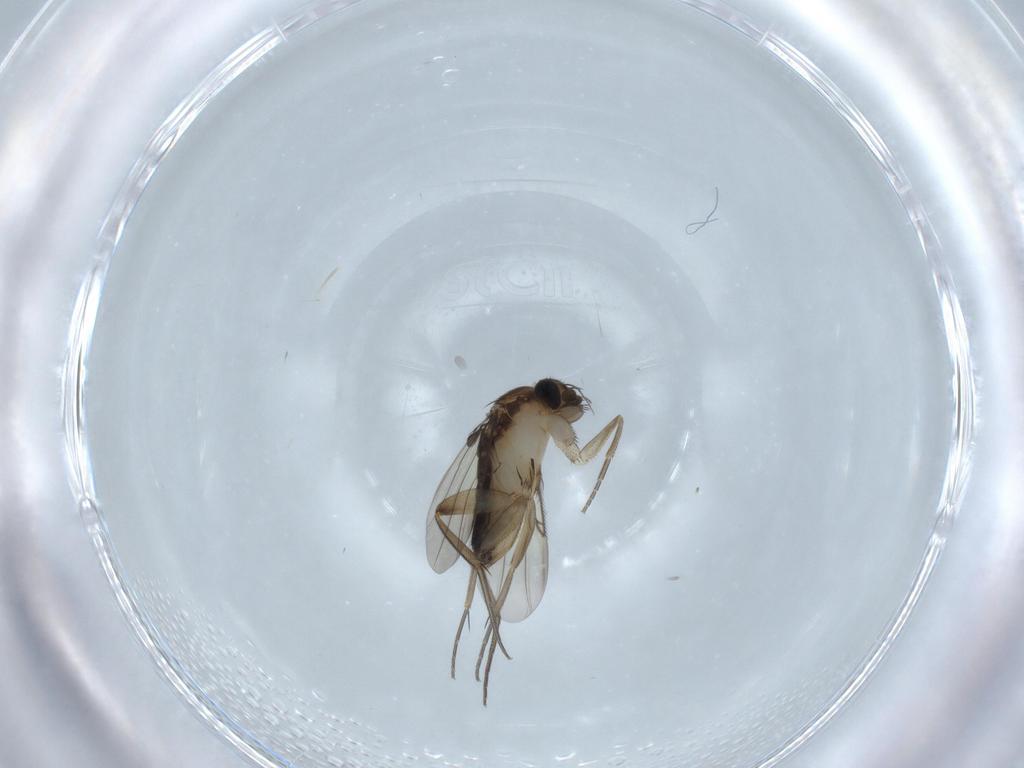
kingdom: Animalia
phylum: Arthropoda
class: Insecta
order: Diptera
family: Phoridae
